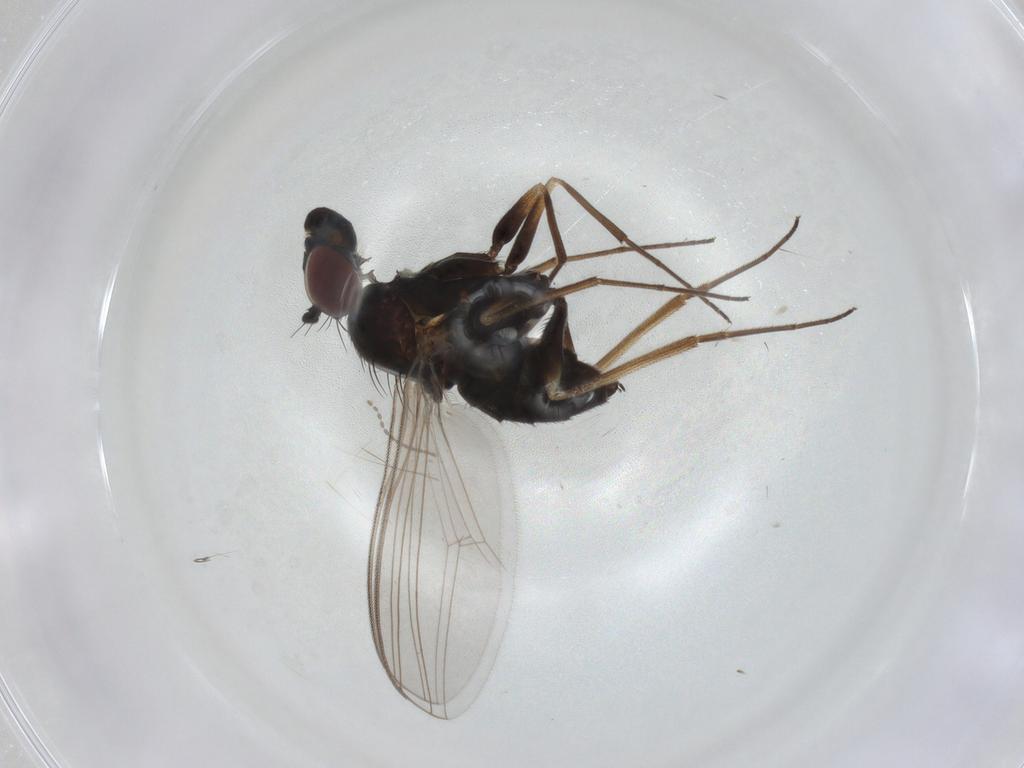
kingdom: Animalia
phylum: Arthropoda
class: Insecta
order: Diptera
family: Dolichopodidae
